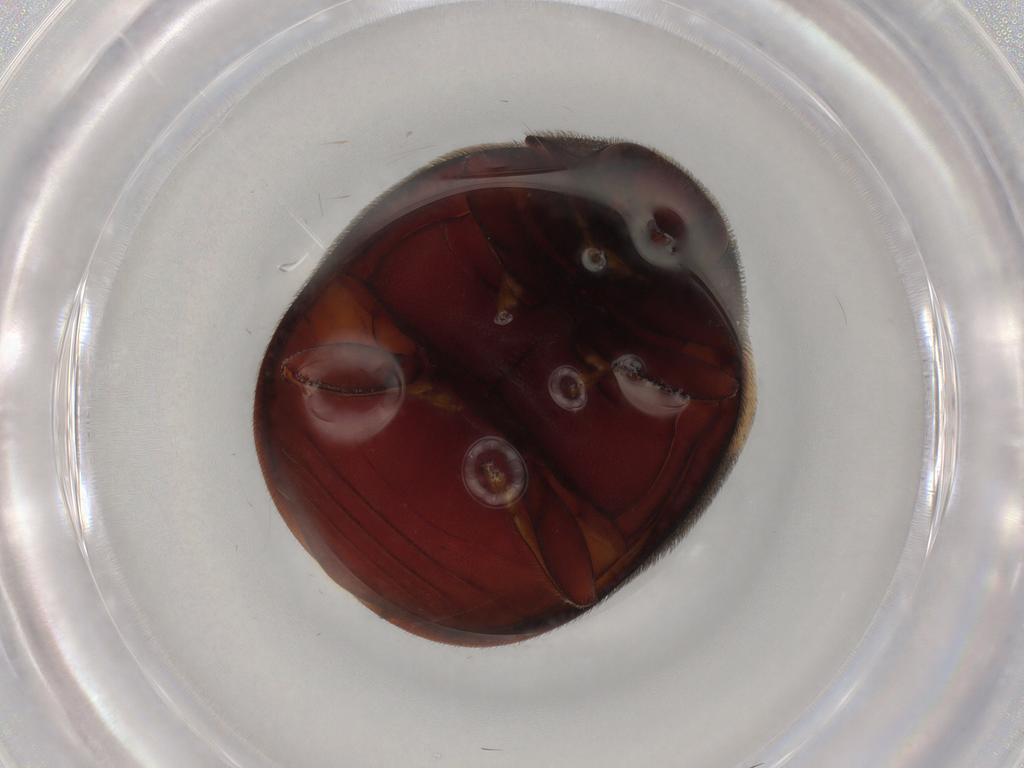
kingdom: Animalia
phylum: Arthropoda
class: Insecta
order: Coleoptera
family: Coccinellidae
